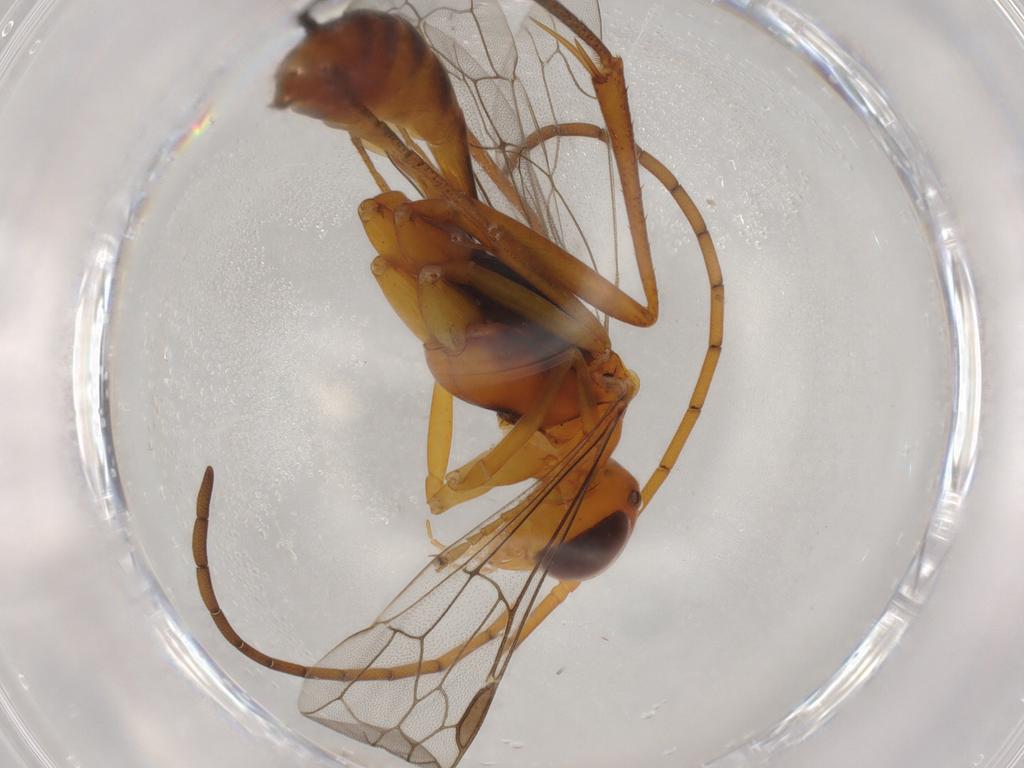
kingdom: Animalia
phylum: Arthropoda
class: Insecta
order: Hymenoptera
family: Pompilidae
